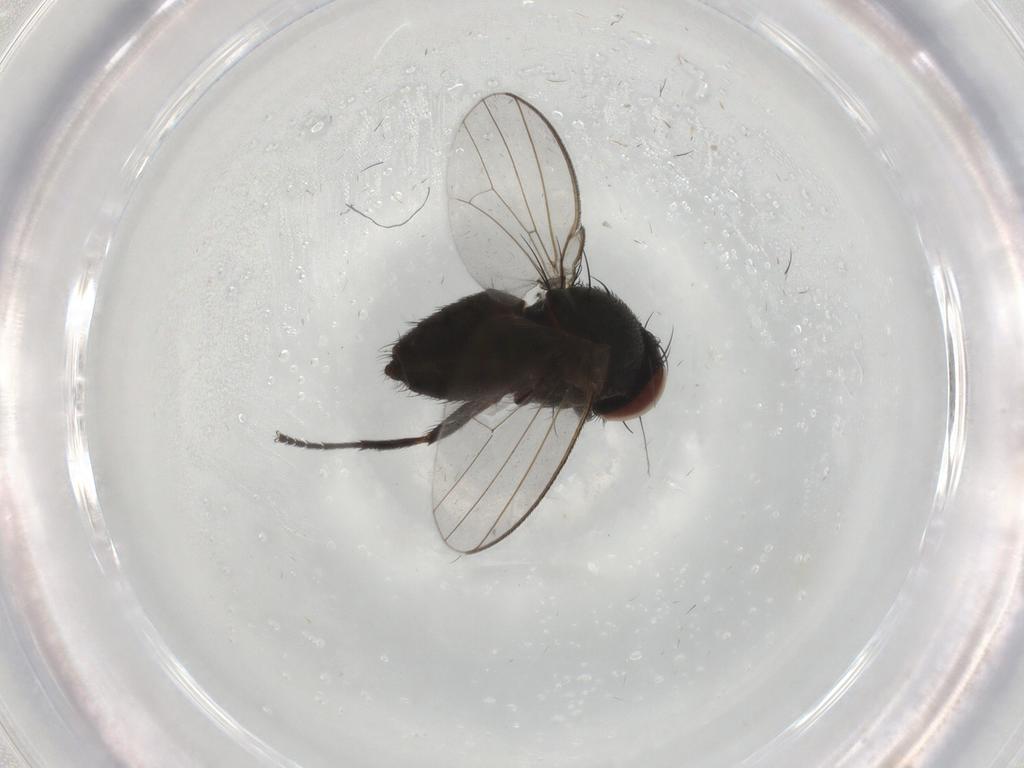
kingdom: Animalia
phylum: Arthropoda
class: Insecta
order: Diptera
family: Milichiidae
